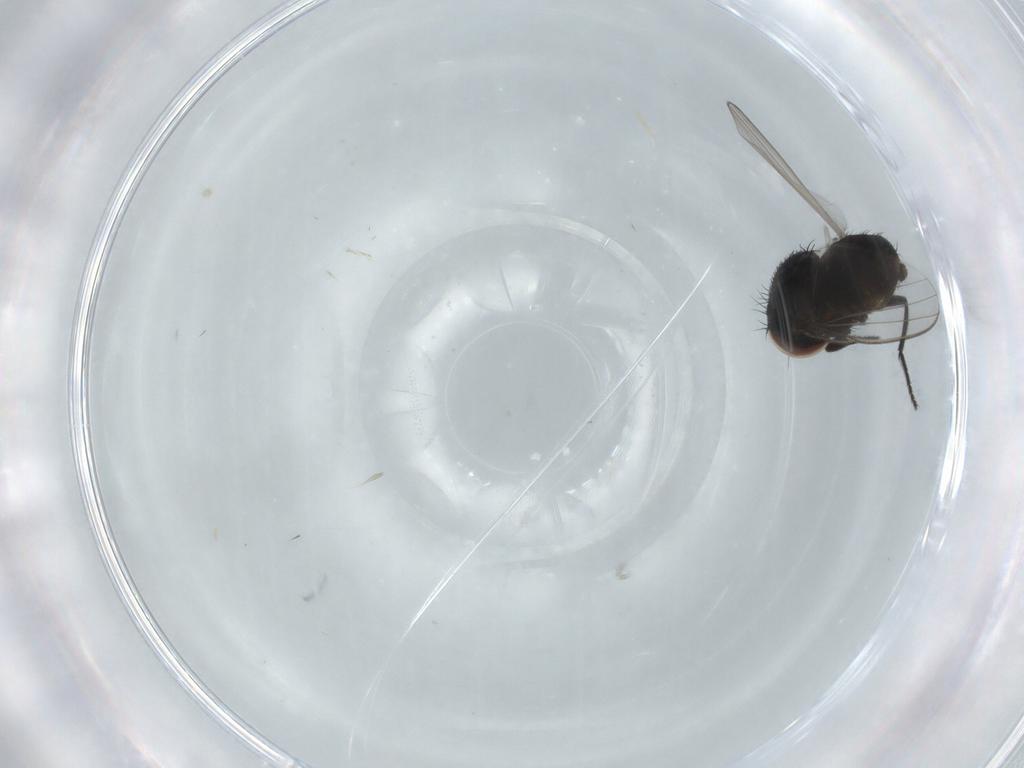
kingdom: Animalia
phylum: Arthropoda
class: Insecta
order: Diptera
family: Milichiidae
